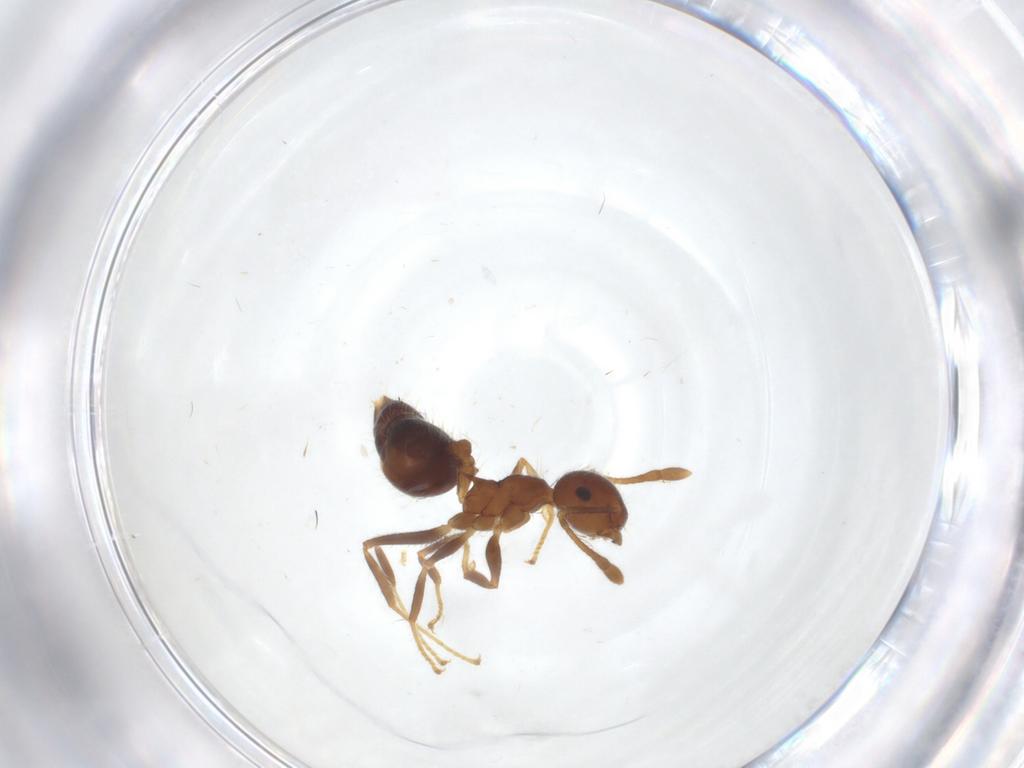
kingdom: Animalia
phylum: Arthropoda
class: Insecta
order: Hymenoptera
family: Formicidae
